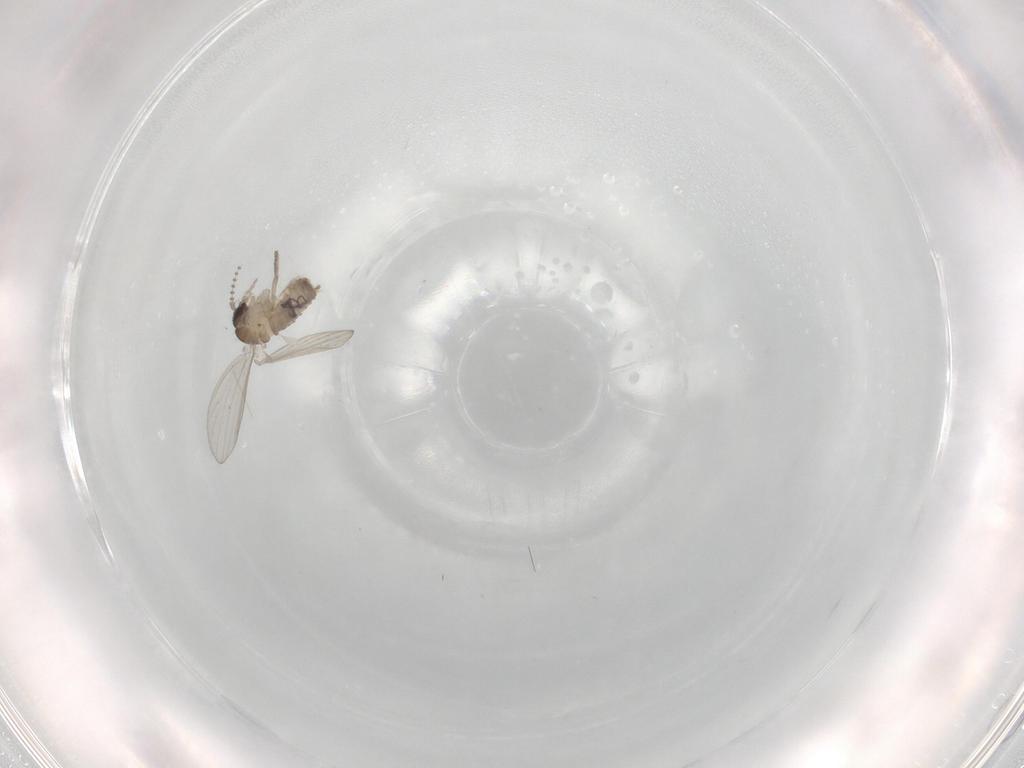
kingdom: Animalia
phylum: Arthropoda
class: Insecta
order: Diptera
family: Psychodidae
